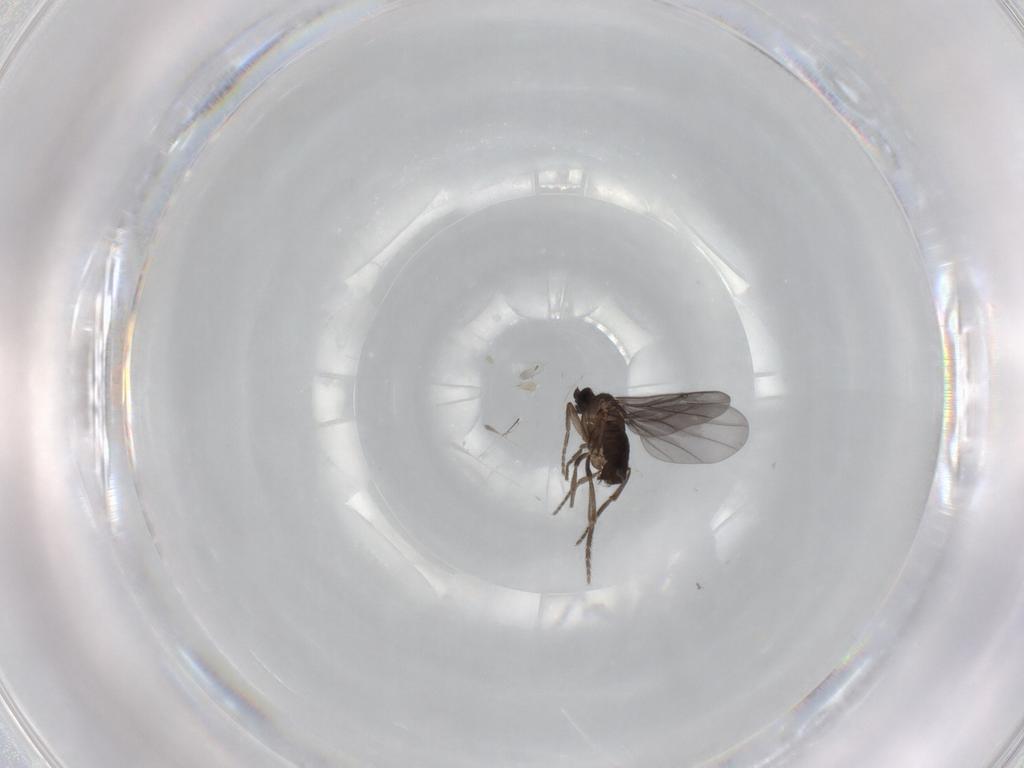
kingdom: Animalia
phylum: Arthropoda
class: Insecta
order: Diptera
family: Phoridae
